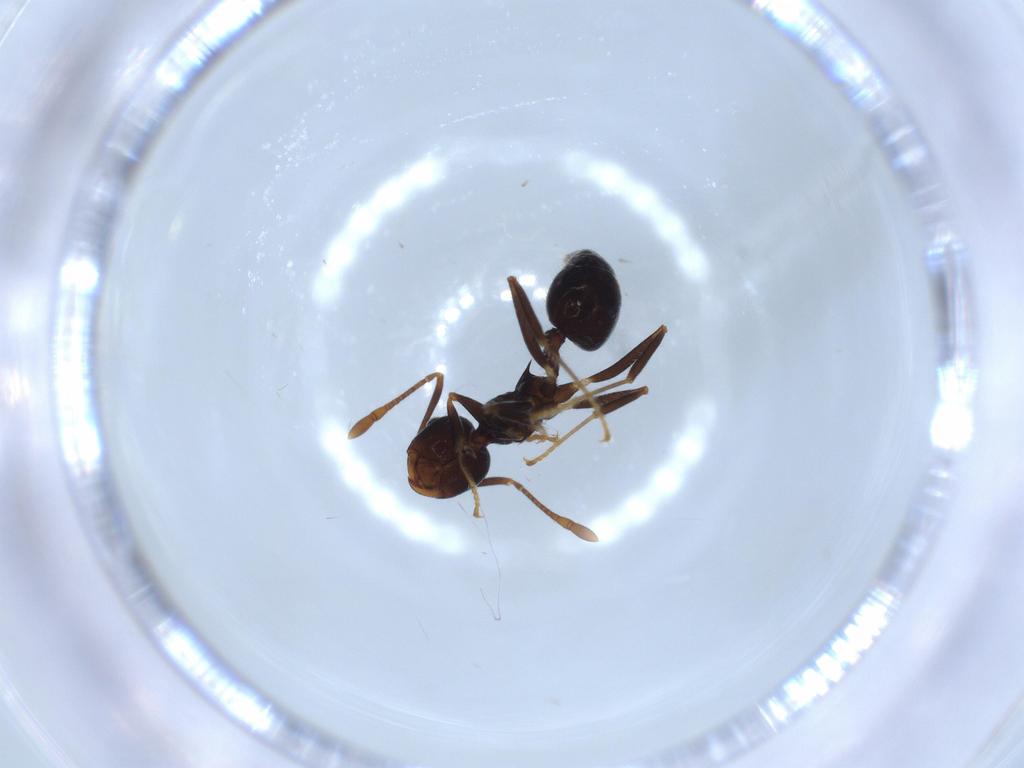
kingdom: Animalia
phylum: Arthropoda
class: Insecta
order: Hymenoptera
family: Formicidae
